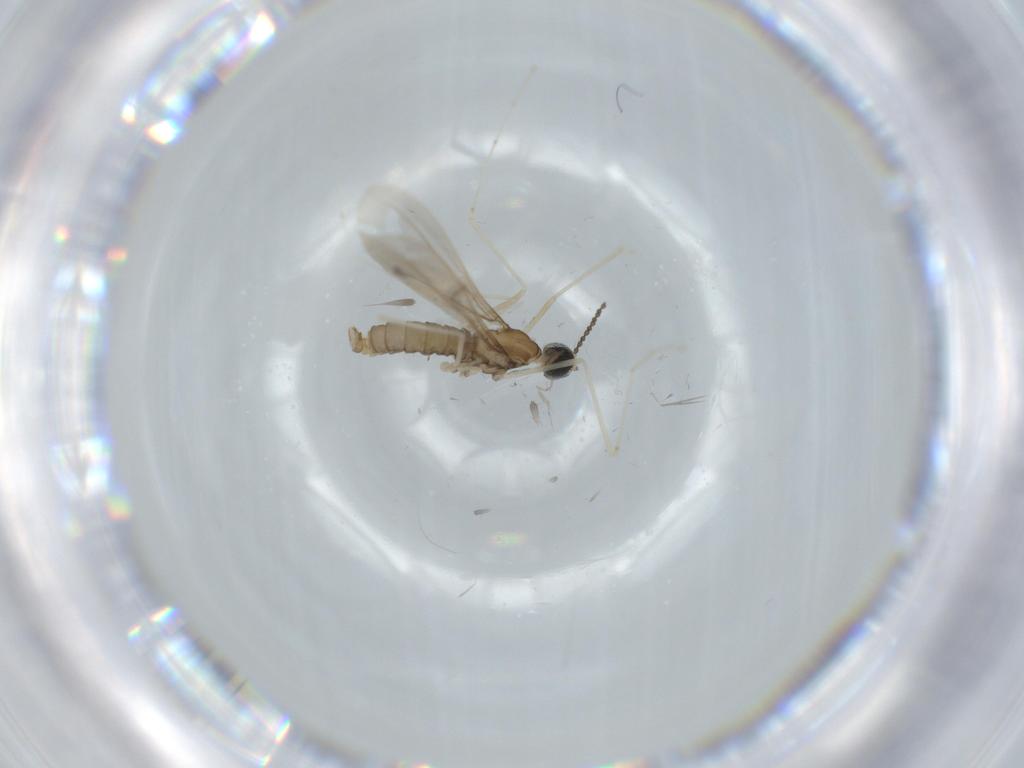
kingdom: Animalia
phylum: Arthropoda
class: Insecta
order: Diptera
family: Cecidomyiidae
